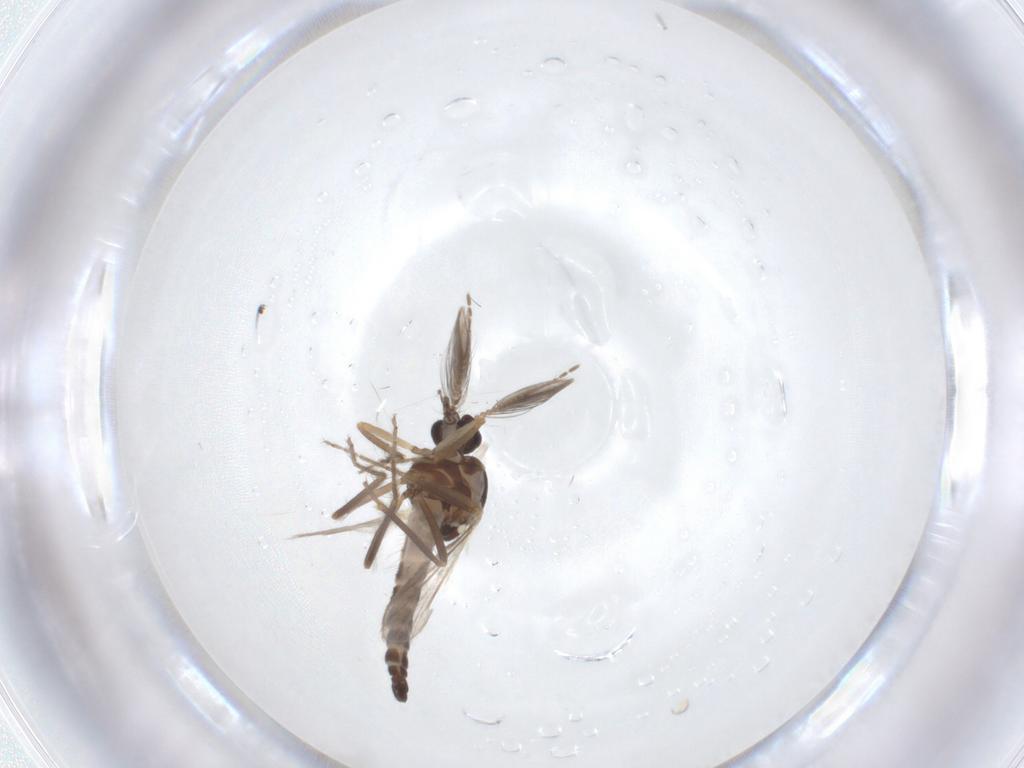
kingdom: Animalia
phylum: Arthropoda
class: Insecta
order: Diptera
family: Ceratopogonidae
